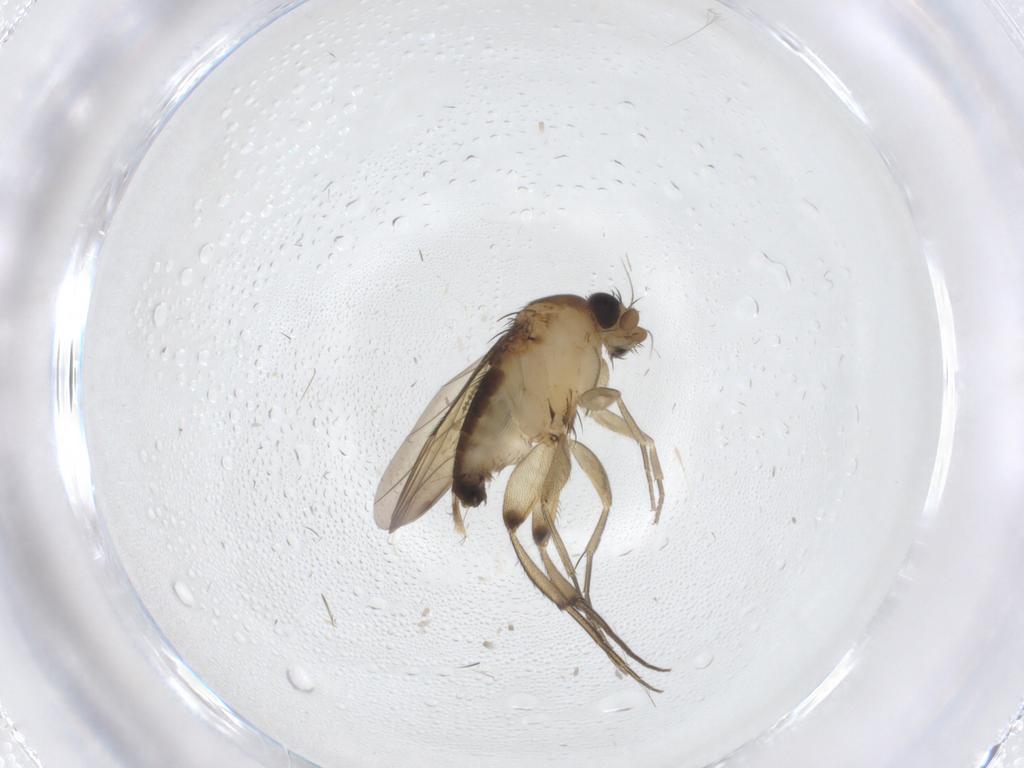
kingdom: Animalia
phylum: Arthropoda
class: Insecta
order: Diptera
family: Phoridae
